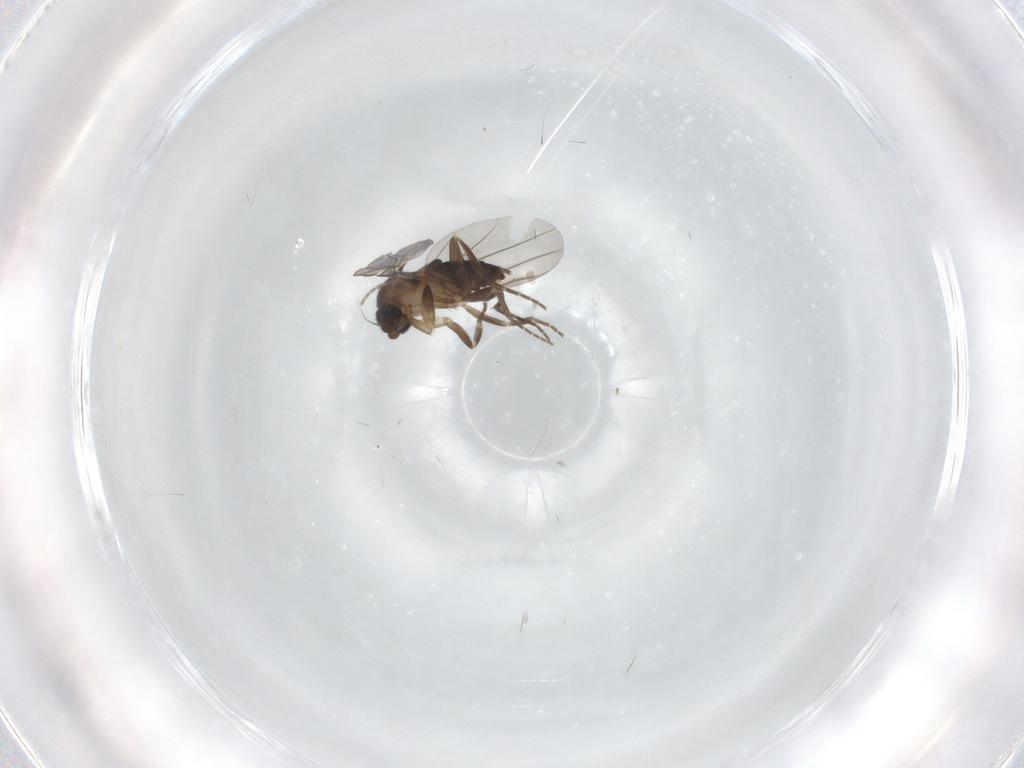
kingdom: Animalia
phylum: Arthropoda
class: Insecta
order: Diptera
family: Phoridae
